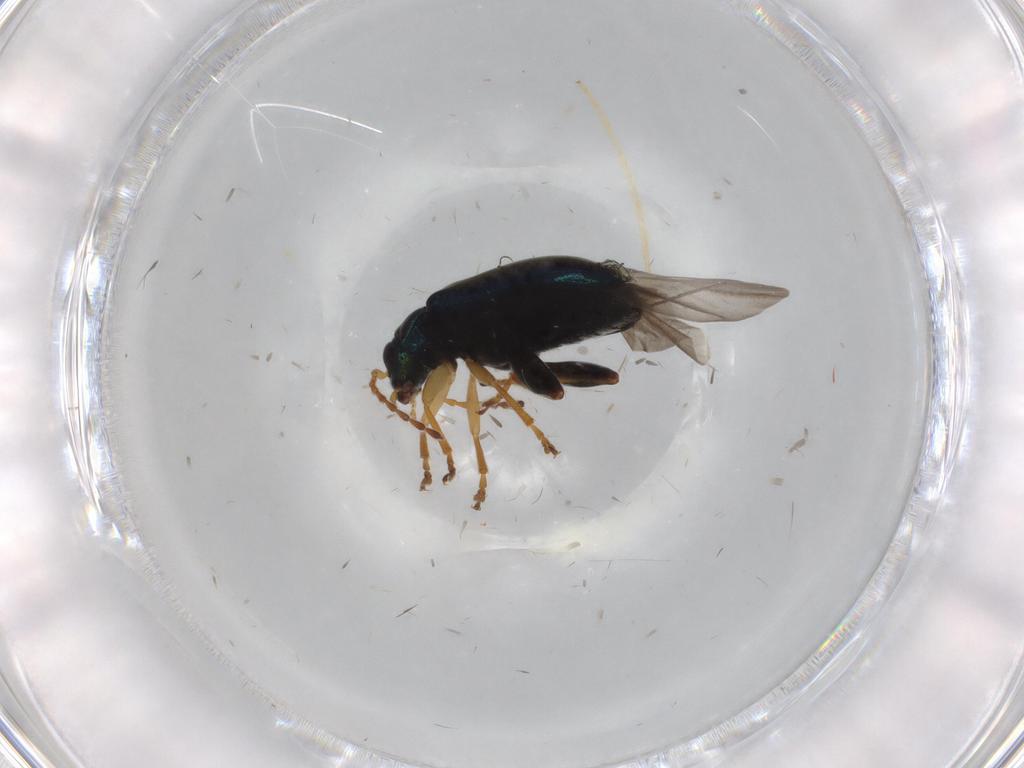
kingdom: Animalia
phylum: Arthropoda
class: Insecta
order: Coleoptera
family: Chrysomelidae
